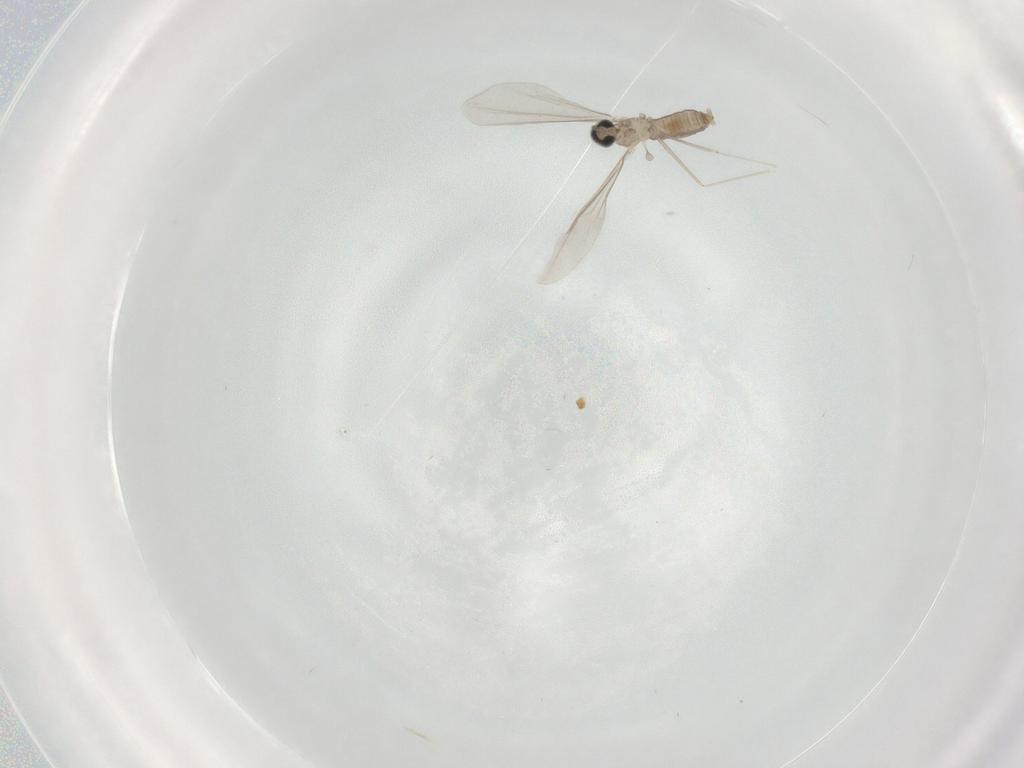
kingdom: Animalia
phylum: Arthropoda
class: Insecta
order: Diptera
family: Cecidomyiidae
